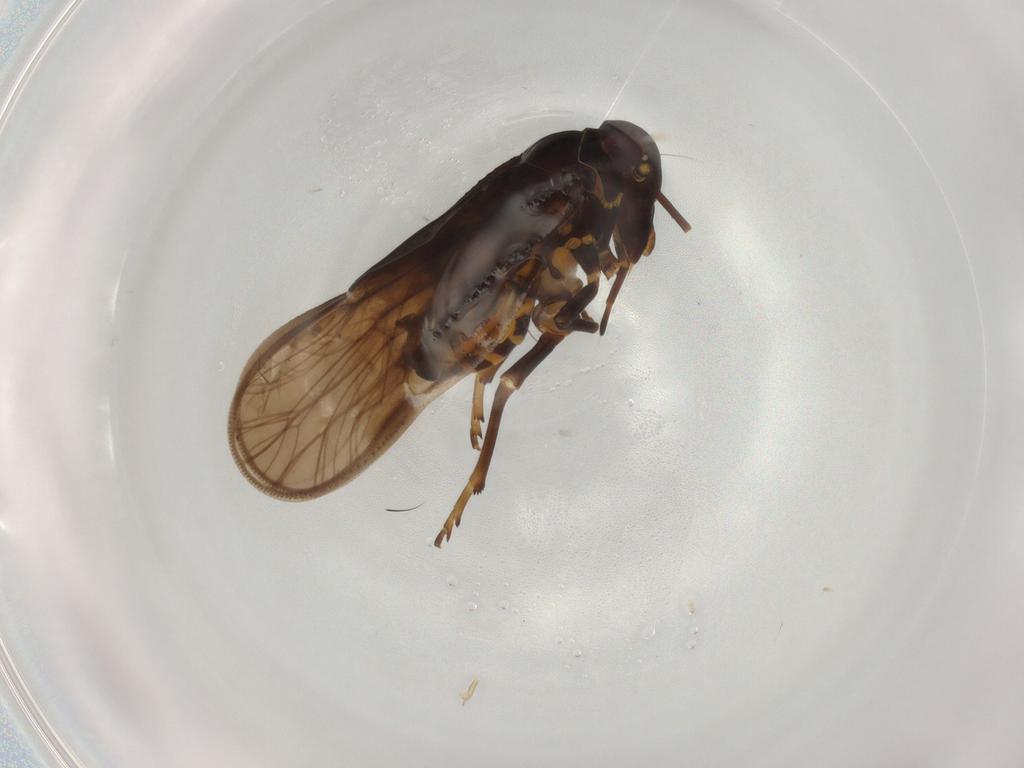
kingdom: Animalia
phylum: Arthropoda
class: Insecta
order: Hemiptera
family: Meenoplidae
